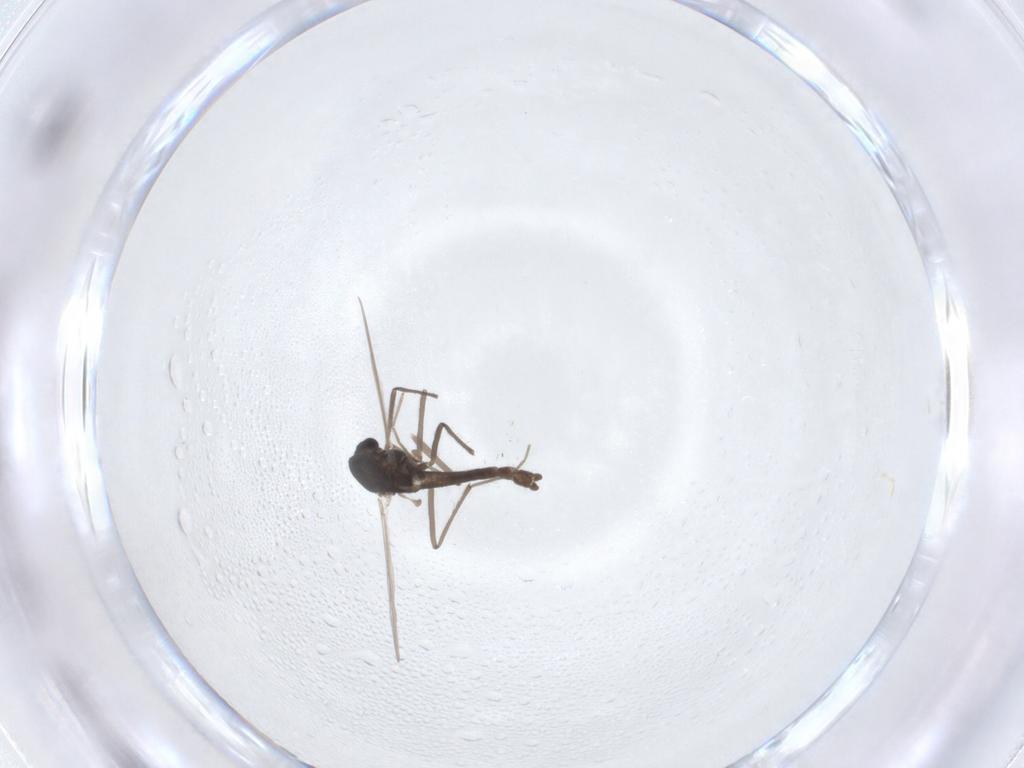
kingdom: Animalia
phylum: Arthropoda
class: Insecta
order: Diptera
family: Chironomidae
